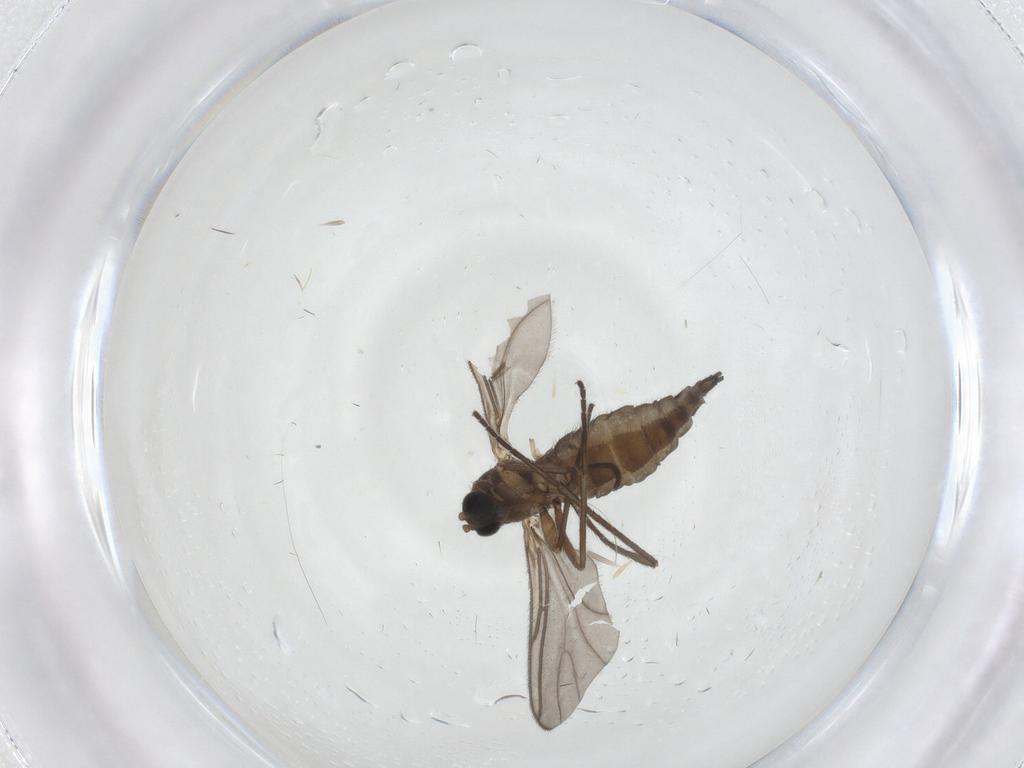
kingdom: Animalia
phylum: Arthropoda
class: Insecta
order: Diptera
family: Sciaridae
